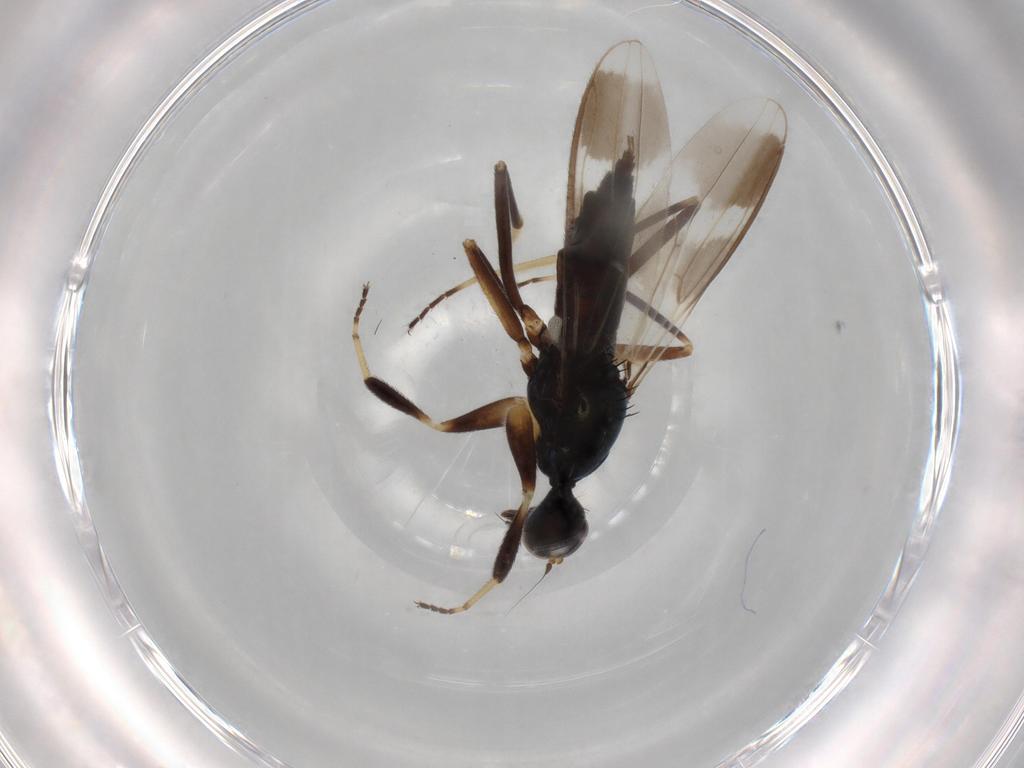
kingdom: Animalia
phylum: Arthropoda
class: Insecta
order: Diptera
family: Hybotidae
